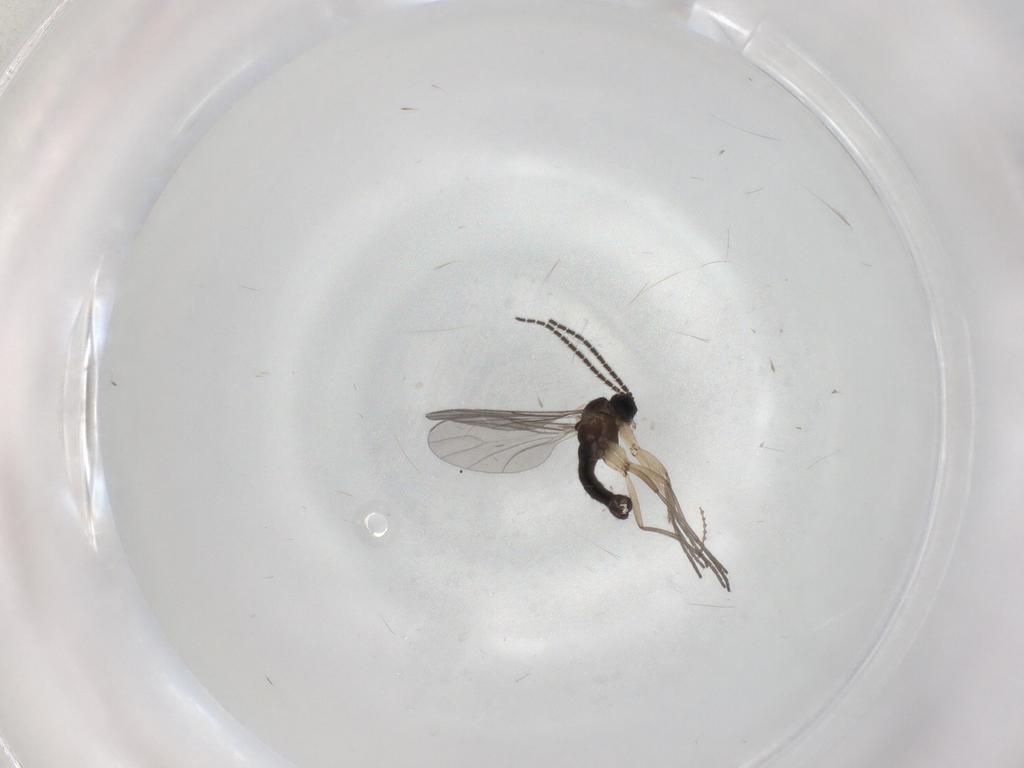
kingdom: Animalia
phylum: Arthropoda
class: Insecta
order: Diptera
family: Sciaridae
